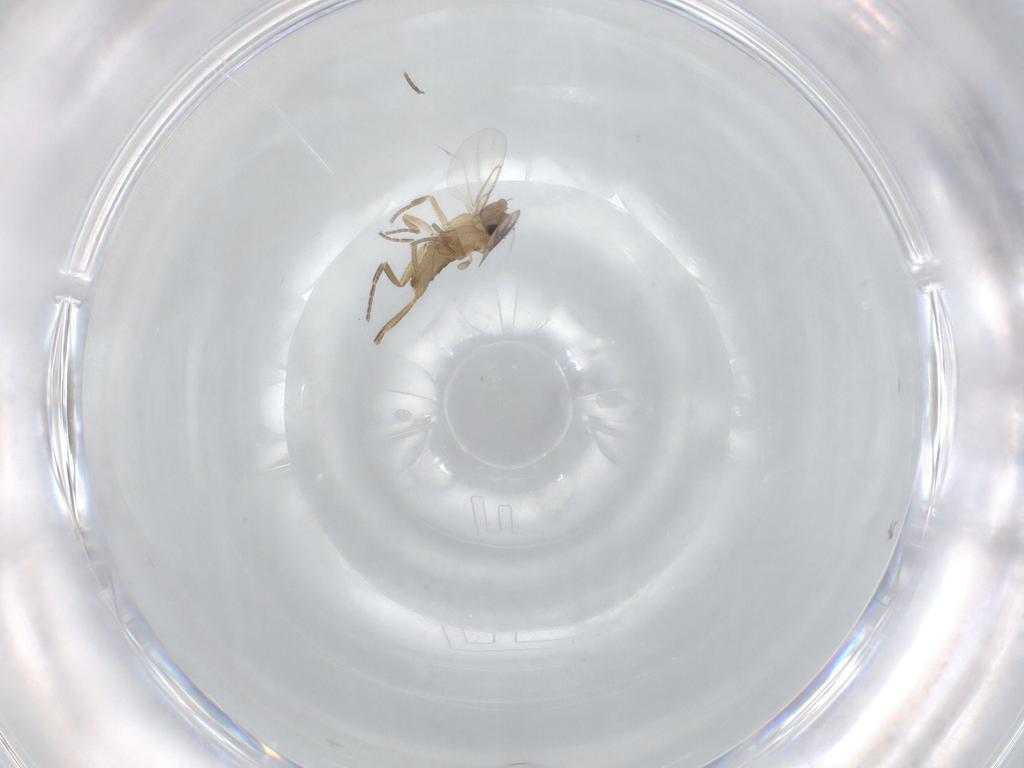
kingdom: Animalia
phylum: Arthropoda
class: Insecta
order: Diptera
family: Phoridae
